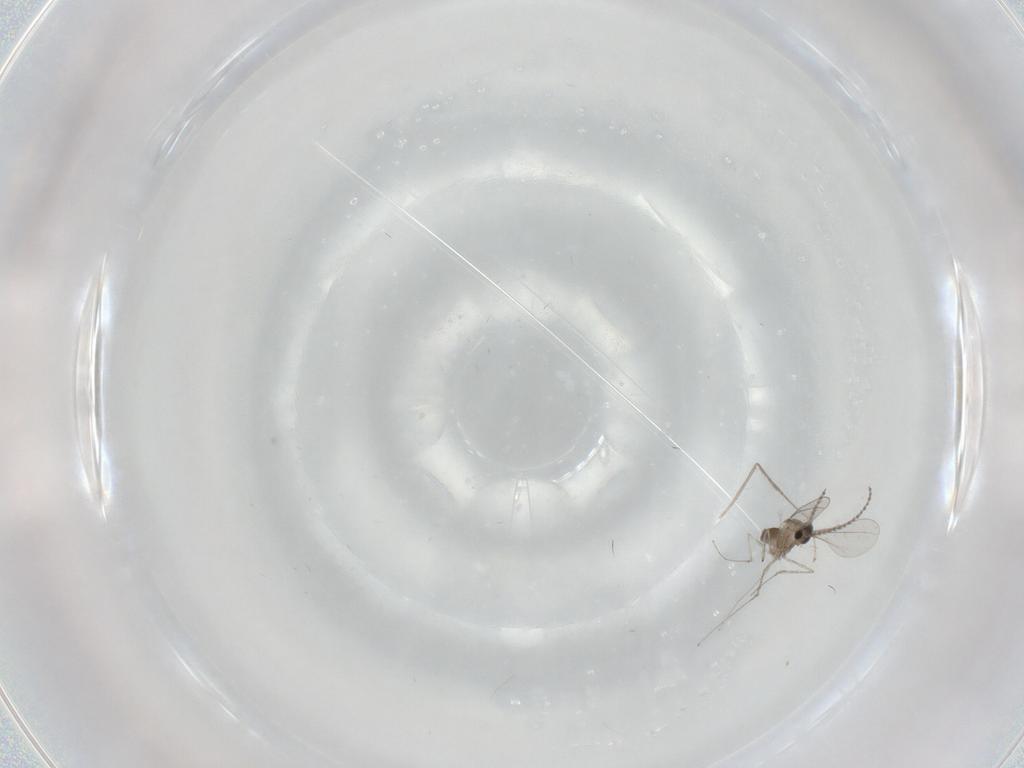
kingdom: Animalia
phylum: Arthropoda
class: Insecta
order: Diptera
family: Cecidomyiidae
